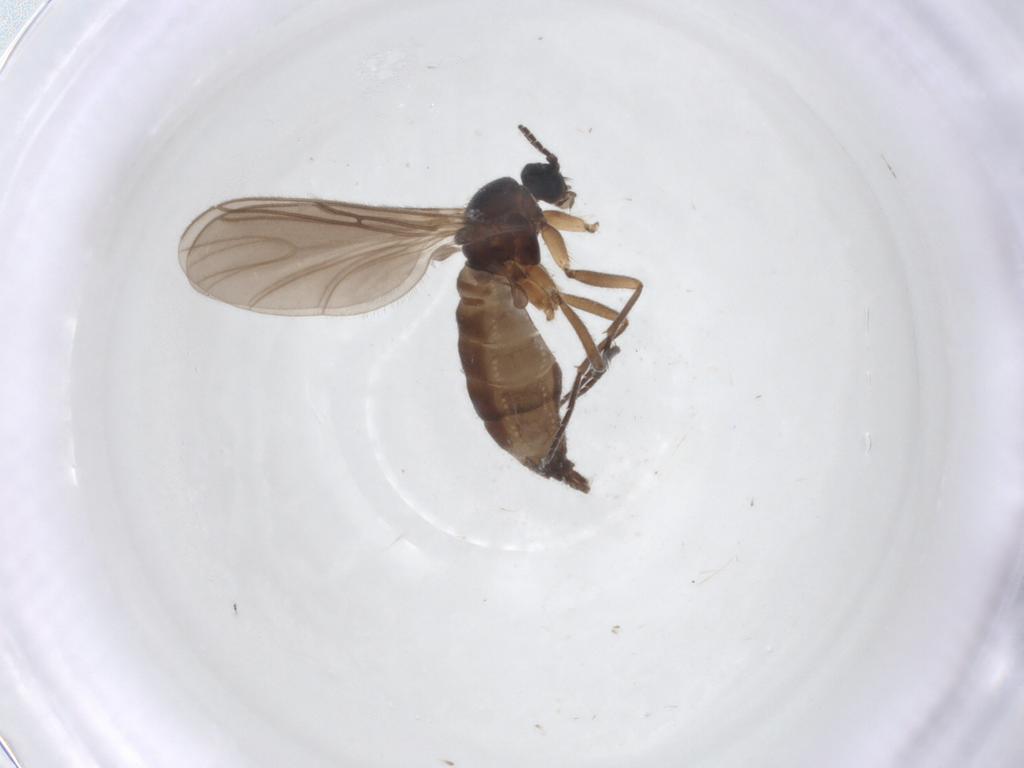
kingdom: Animalia
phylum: Arthropoda
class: Insecta
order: Diptera
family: Sciaridae
